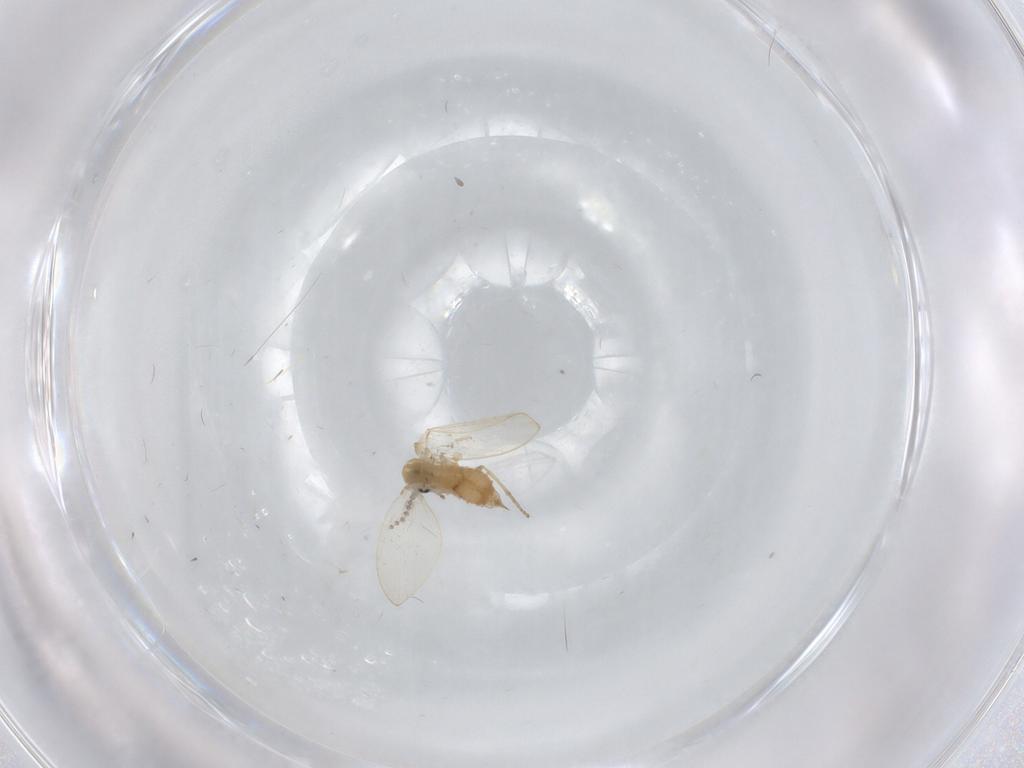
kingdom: Animalia
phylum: Arthropoda
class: Insecta
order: Diptera
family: Psychodidae
